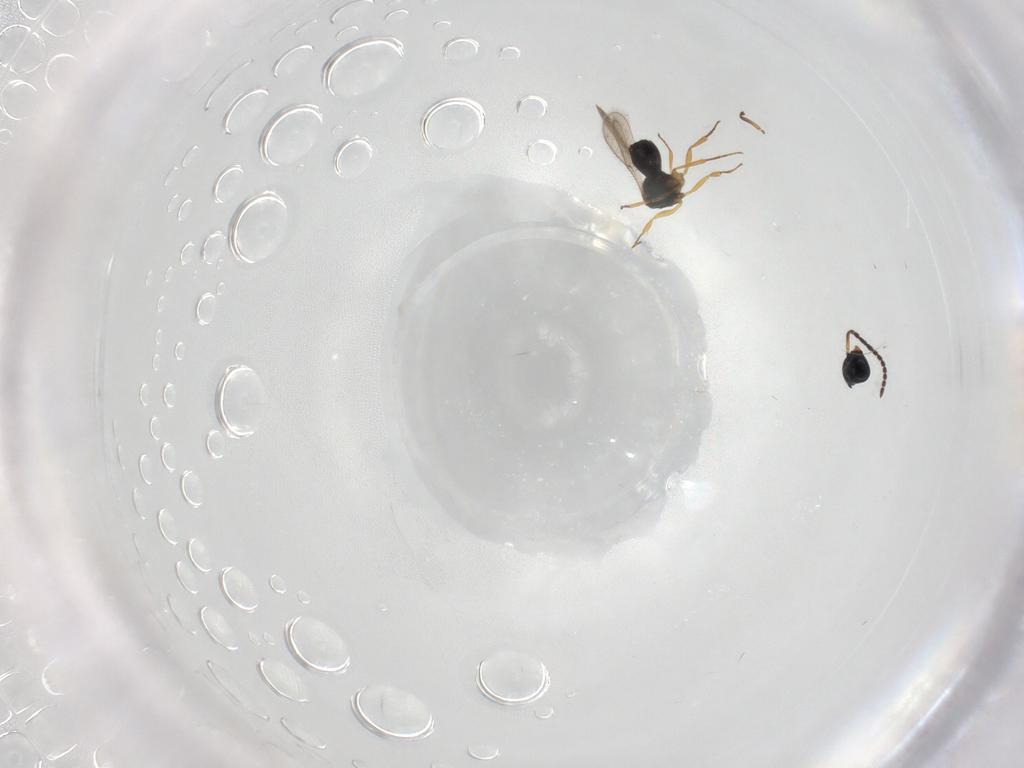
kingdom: Animalia
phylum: Arthropoda
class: Insecta
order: Hymenoptera
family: Scelionidae
